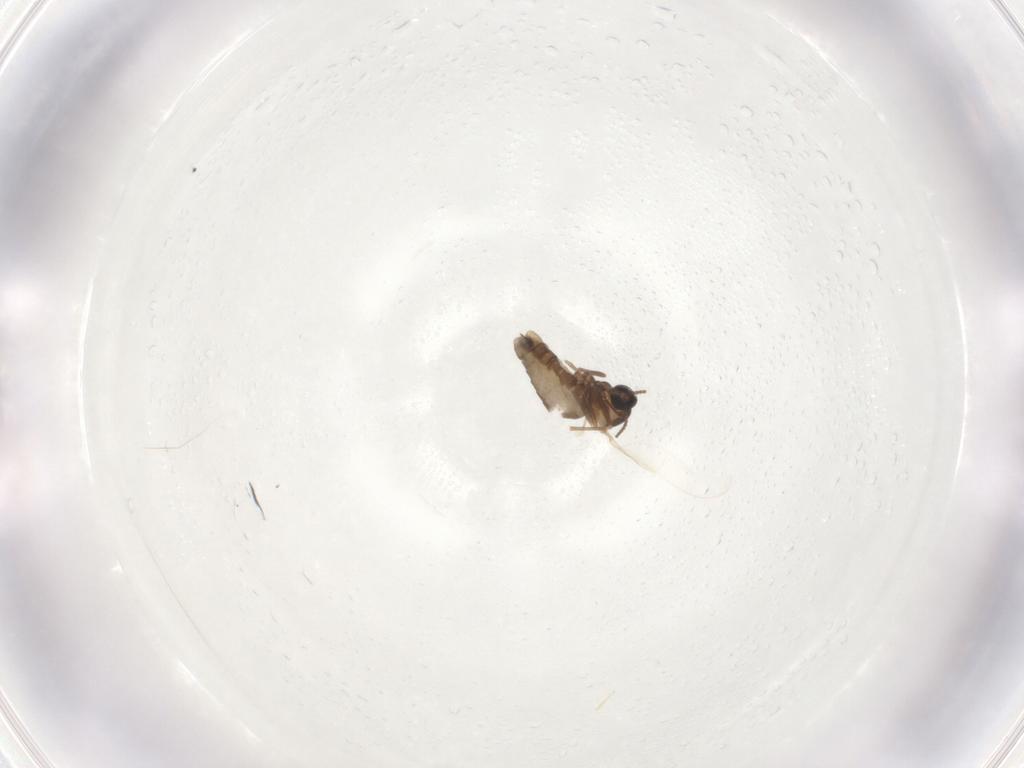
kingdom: Animalia
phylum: Arthropoda
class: Insecta
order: Diptera
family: Cecidomyiidae
